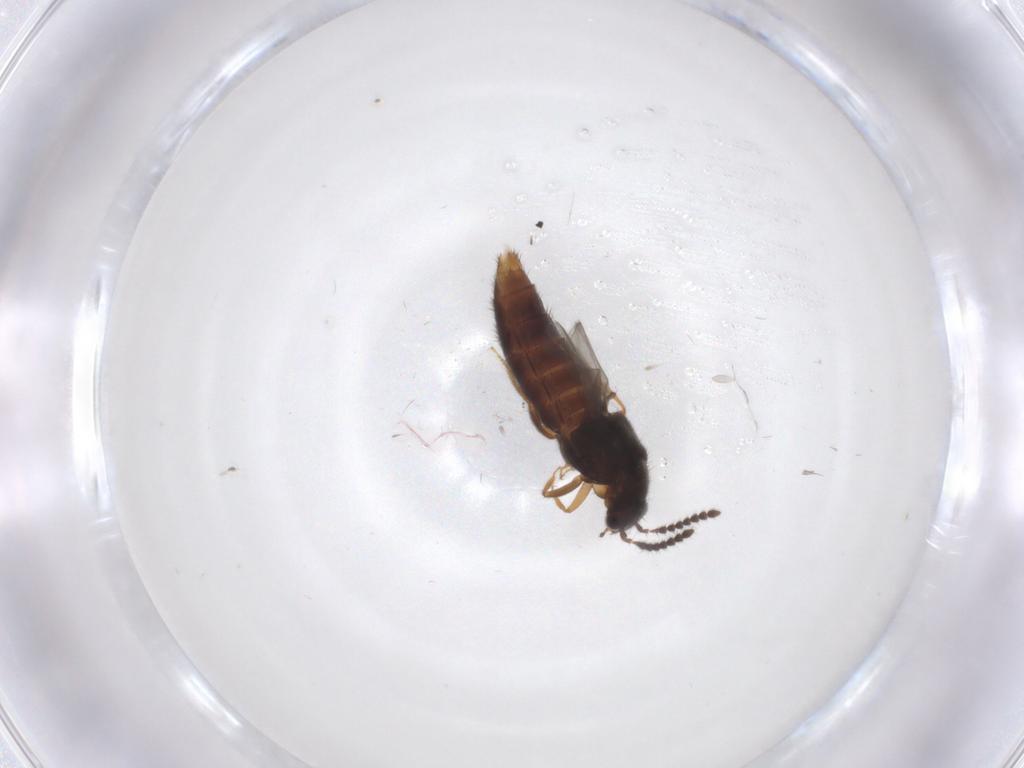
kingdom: Animalia
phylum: Arthropoda
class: Insecta
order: Coleoptera
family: Staphylinidae
